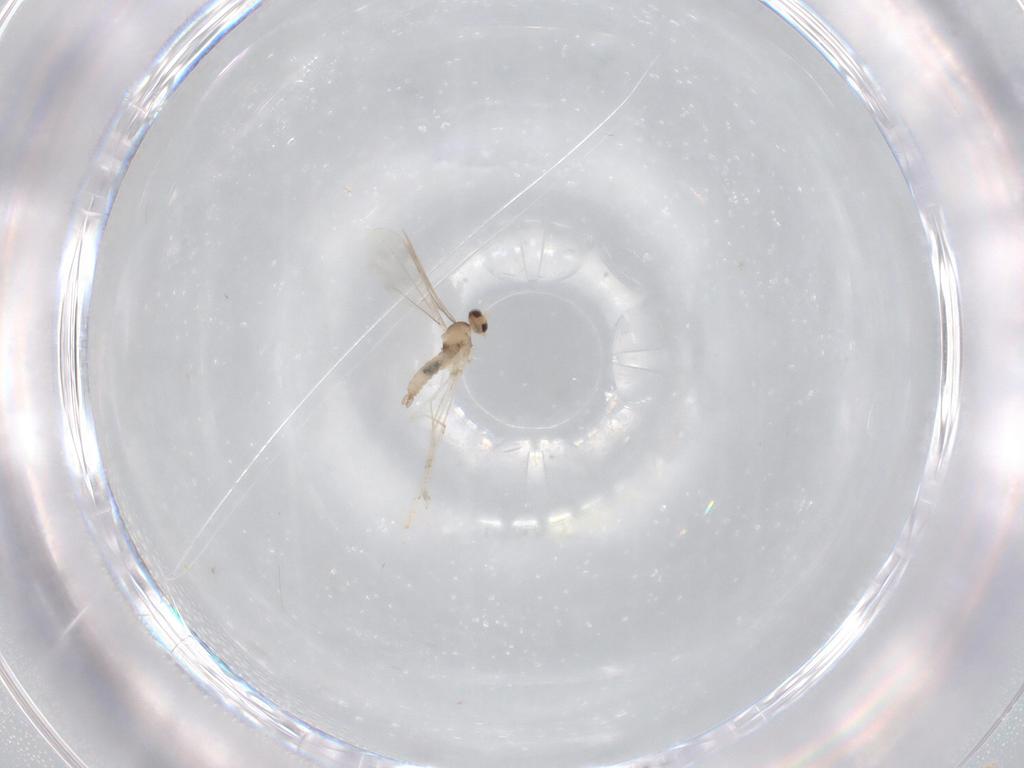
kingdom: Animalia
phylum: Arthropoda
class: Insecta
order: Diptera
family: Cecidomyiidae
